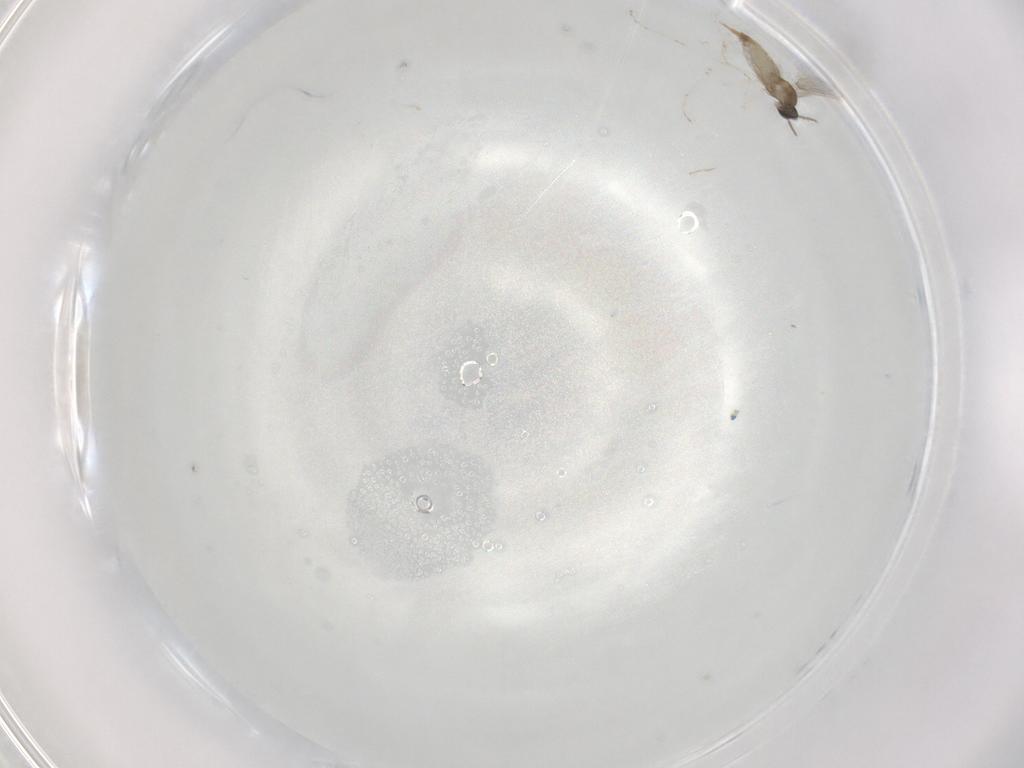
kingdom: Animalia
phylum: Arthropoda
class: Insecta
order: Diptera
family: Cecidomyiidae
